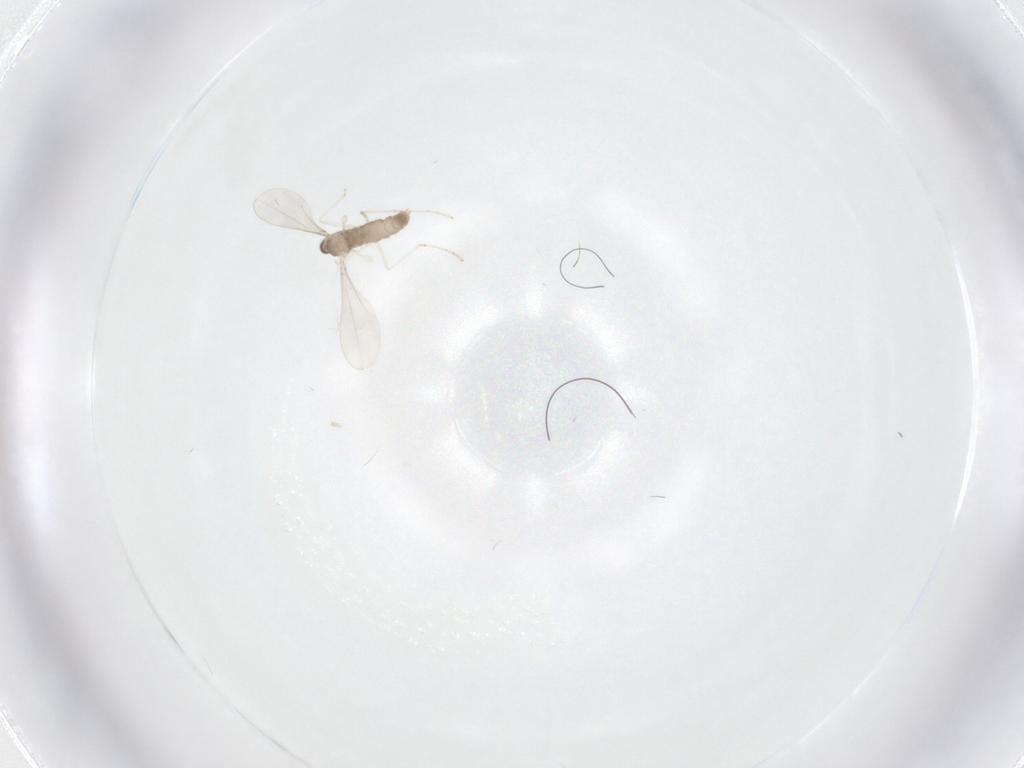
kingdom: Animalia
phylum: Arthropoda
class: Insecta
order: Diptera
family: Cecidomyiidae
